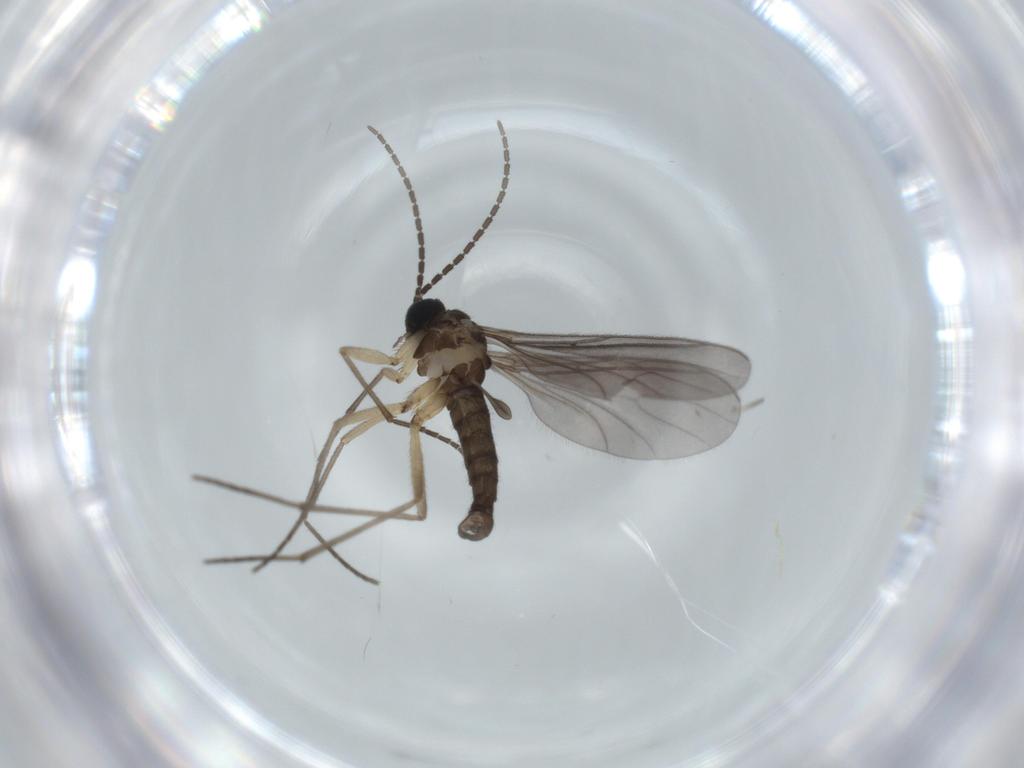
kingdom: Animalia
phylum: Arthropoda
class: Insecta
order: Diptera
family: Sciaridae
